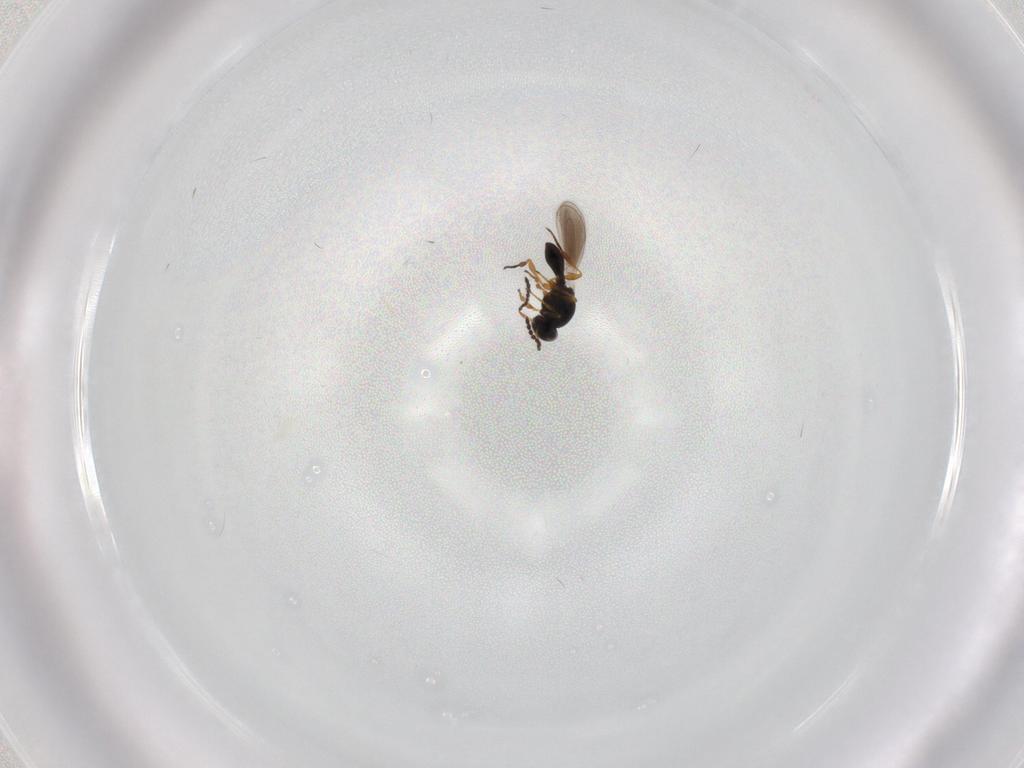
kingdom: Animalia
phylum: Arthropoda
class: Insecta
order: Hymenoptera
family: Platygastridae
